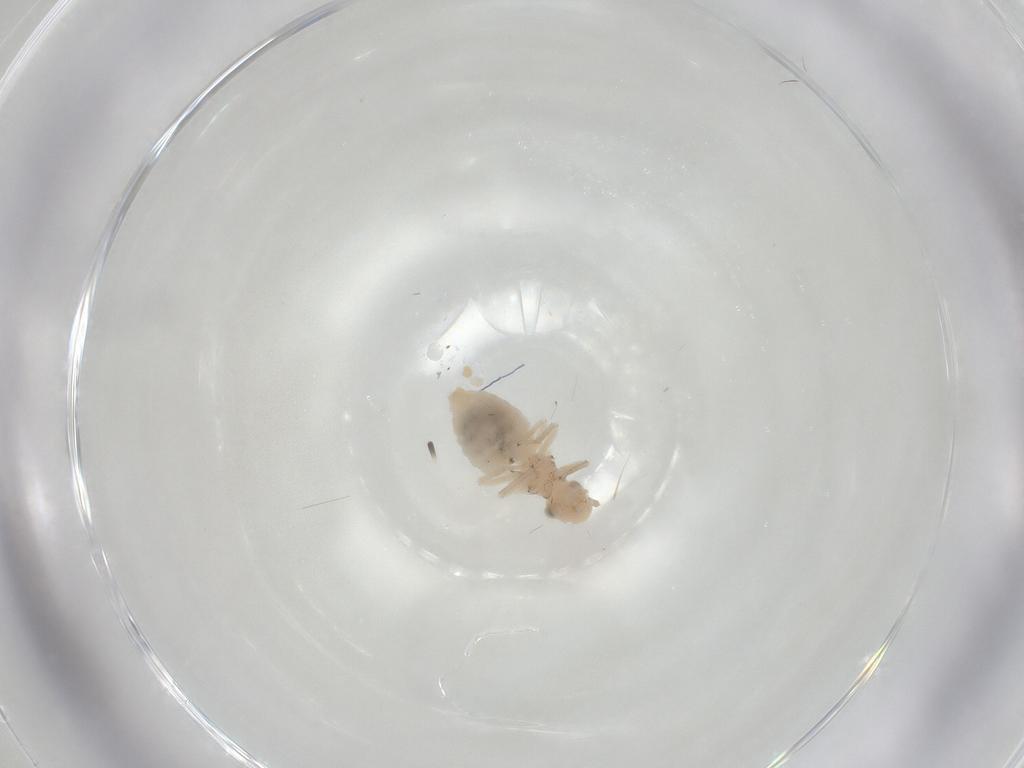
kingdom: Animalia
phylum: Arthropoda
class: Insecta
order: Psocodea
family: Caeciliusidae
